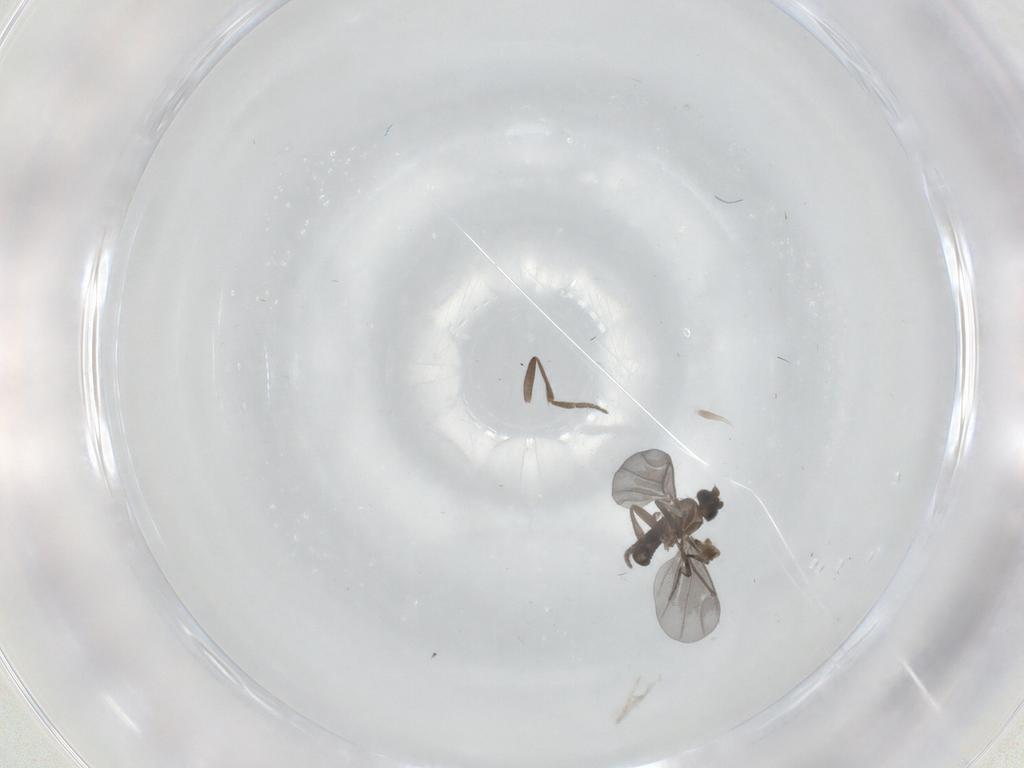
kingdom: Animalia
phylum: Arthropoda
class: Insecta
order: Diptera
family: Phoridae
